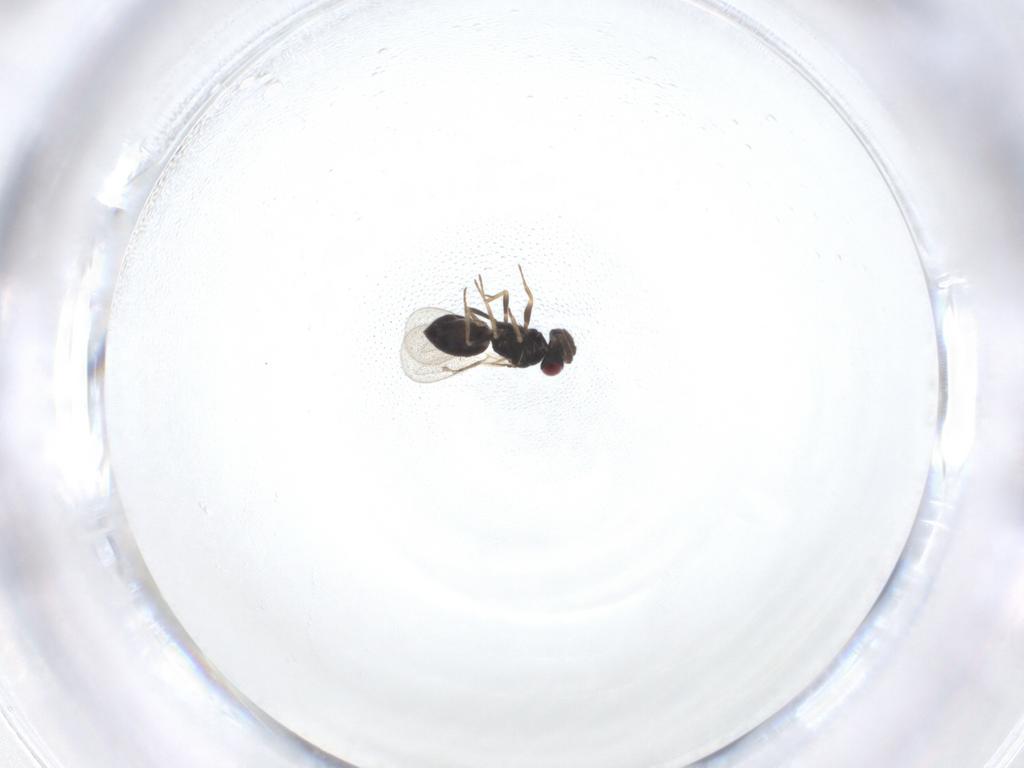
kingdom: Animalia
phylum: Arthropoda
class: Insecta
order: Hymenoptera
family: Eulophidae
